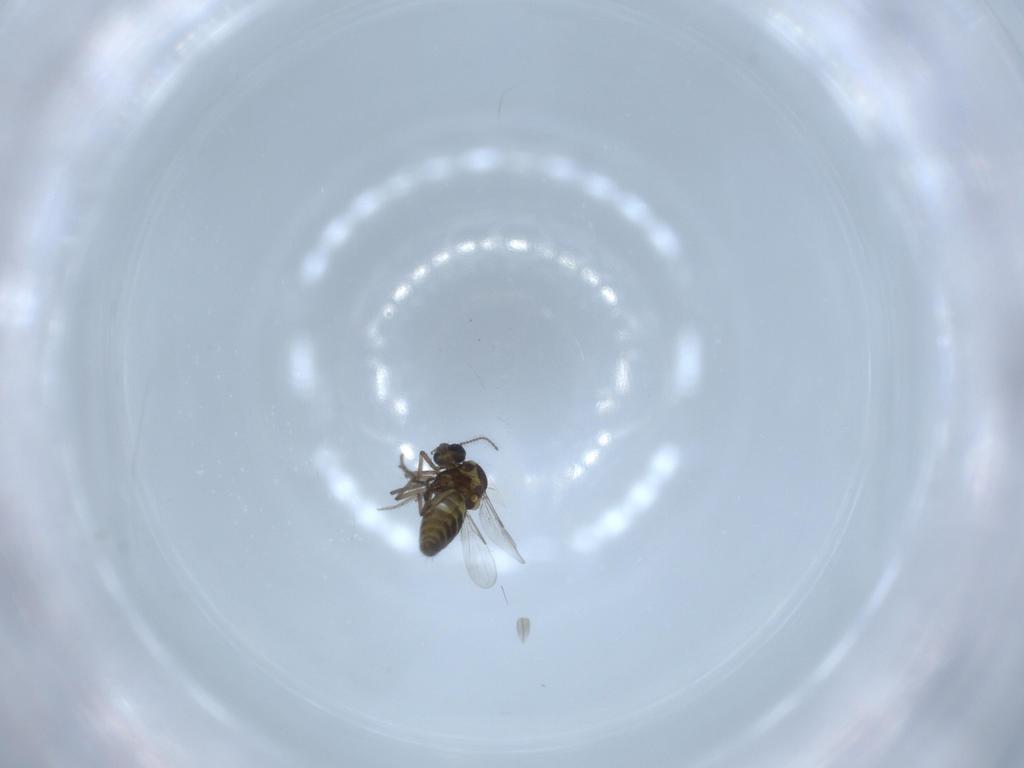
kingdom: Animalia
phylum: Arthropoda
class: Insecta
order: Diptera
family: Ceratopogonidae
